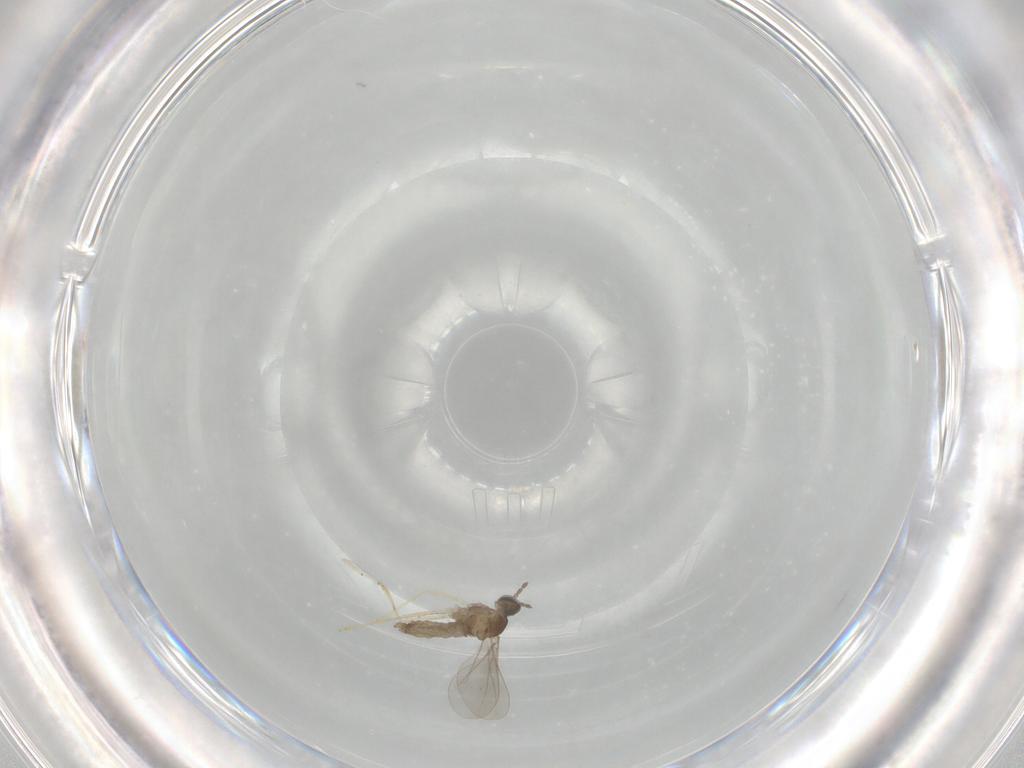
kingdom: Animalia
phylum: Arthropoda
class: Insecta
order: Diptera
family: Chironomidae
